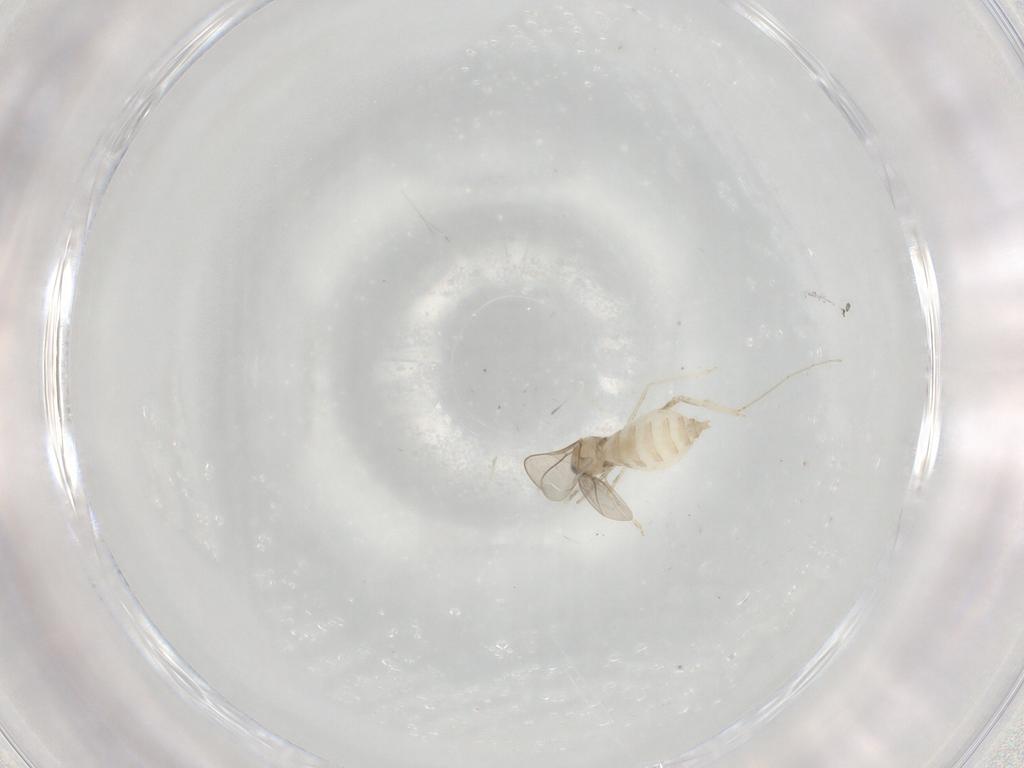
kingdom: Animalia
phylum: Arthropoda
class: Insecta
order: Diptera
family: Cecidomyiidae
